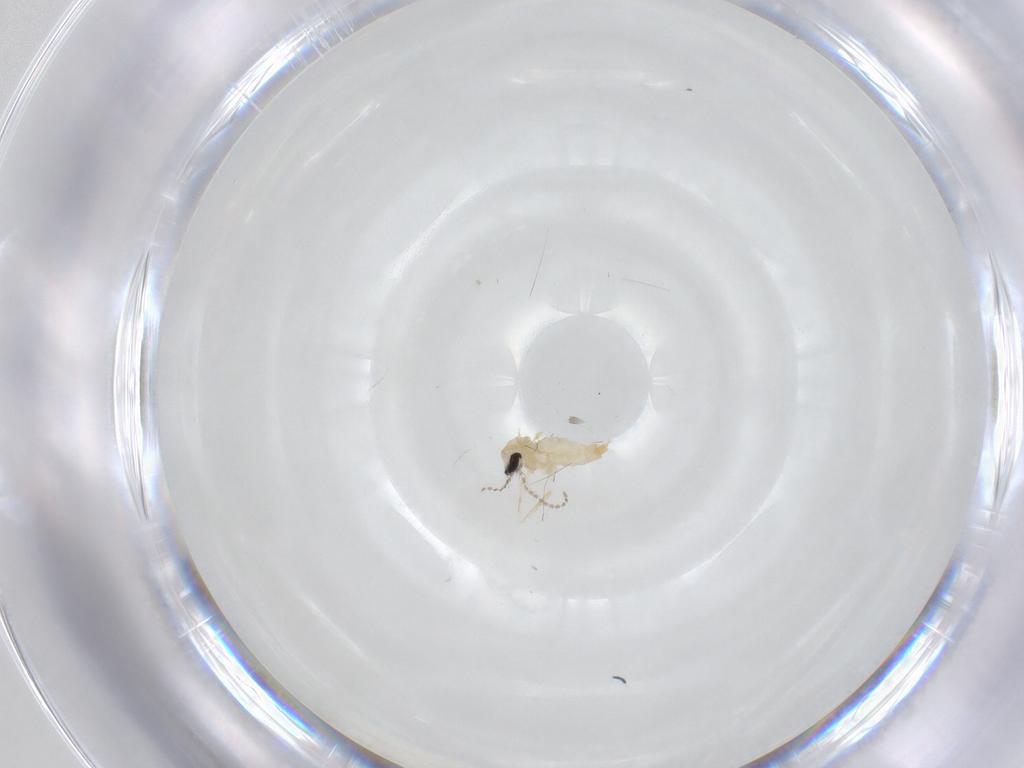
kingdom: Animalia
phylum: Arthropoda
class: Insecta
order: Diptera
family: Cecidomyiidae
